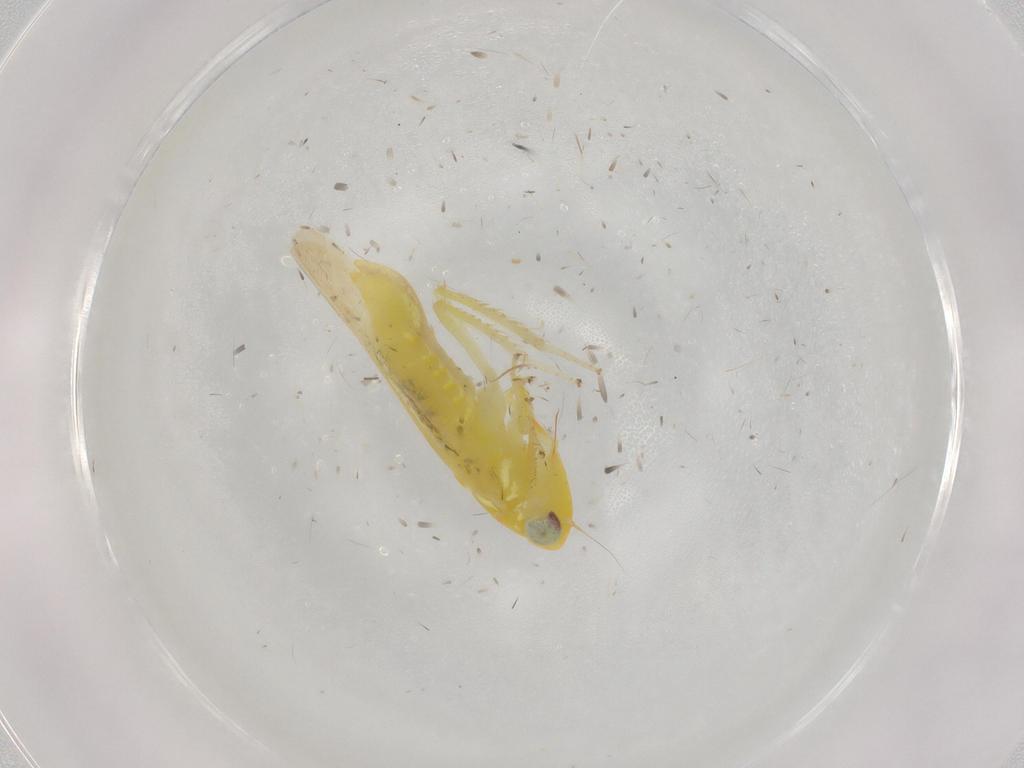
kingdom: Animalia
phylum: Arthropoda
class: Insecta
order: Hemiptera
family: Cicadellidae
